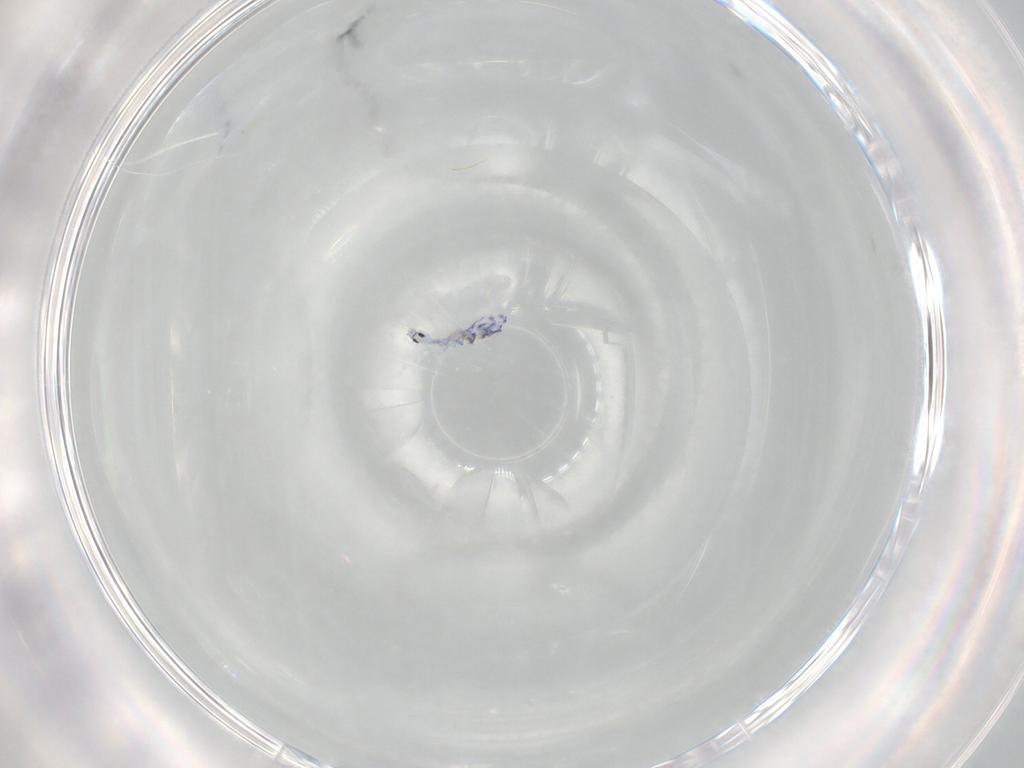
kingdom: Animalia
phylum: Arthropoda
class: Collembola
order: Entomobryomorpha
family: Entomobryidae
